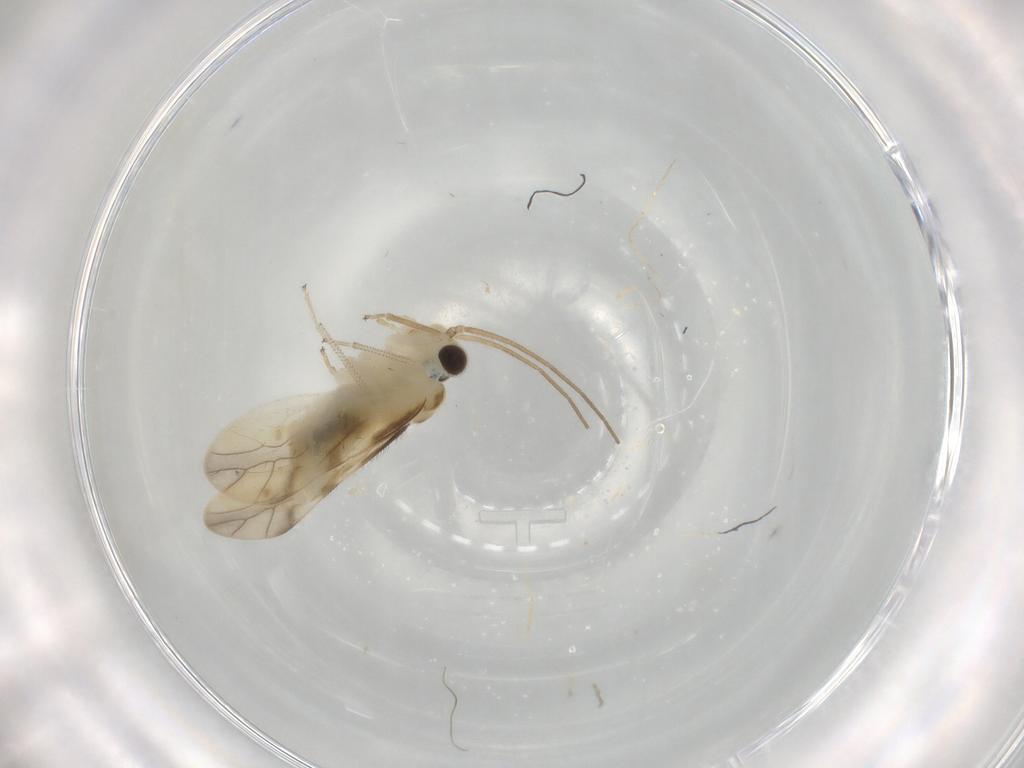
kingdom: Animalia
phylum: Arthropoda
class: Insecta
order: Psocodea
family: Caeciliusidae
